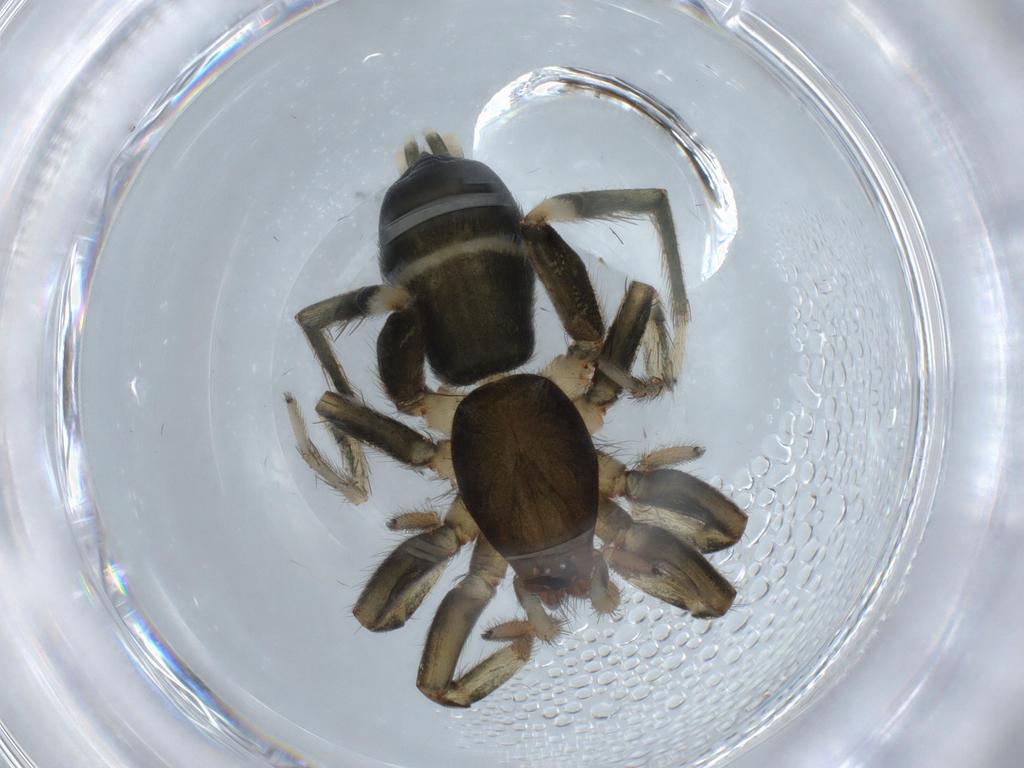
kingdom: Animalia
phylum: Arthropoda
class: Arachnida
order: Araneae
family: Gnaphosidae
